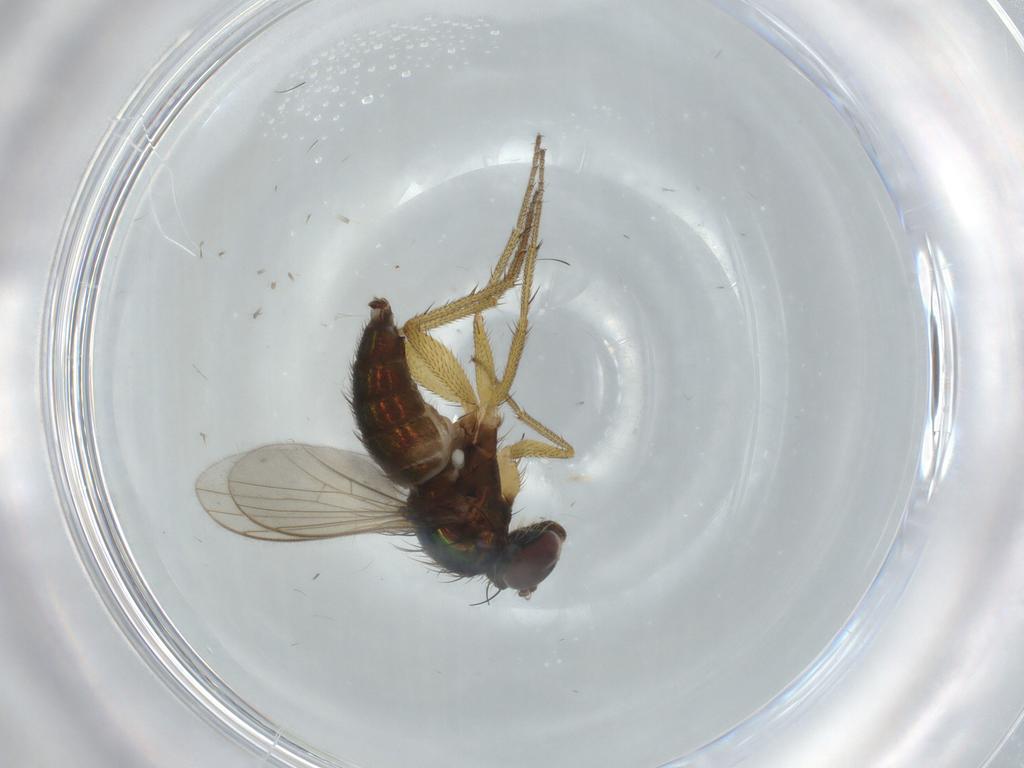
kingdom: Animalia
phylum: Arthropoda
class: Insecta
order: Diptera
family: Dolichopodidae
